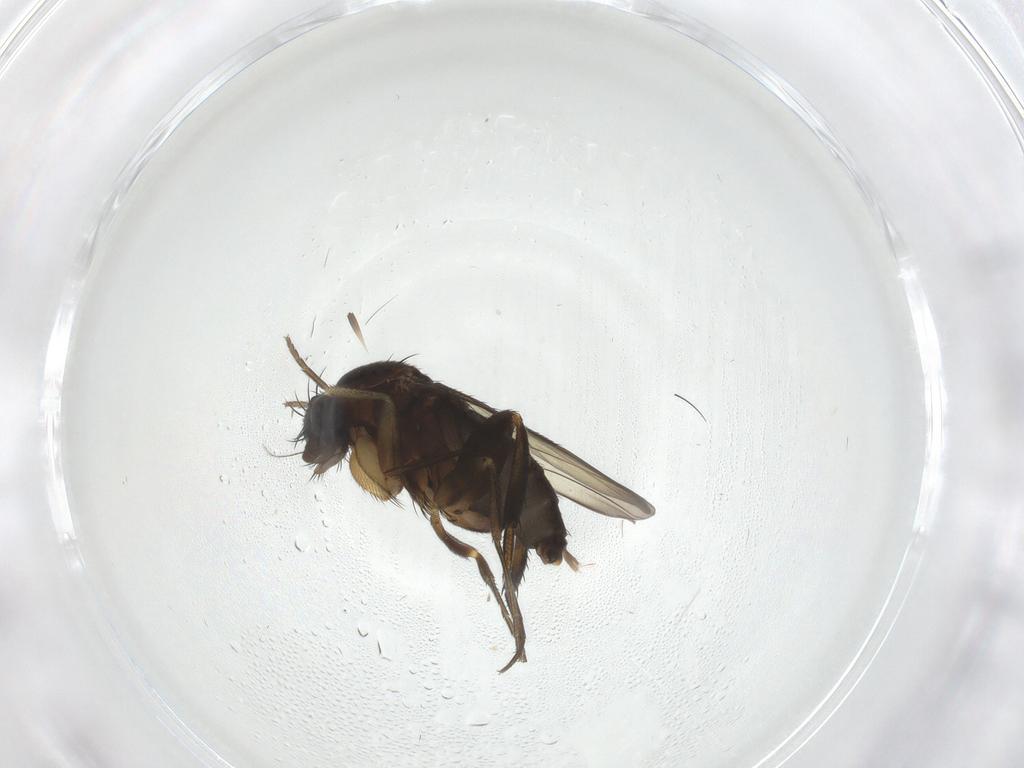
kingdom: Animalia
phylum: Arthropoda
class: Insecta
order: Diptera
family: Phoridae
